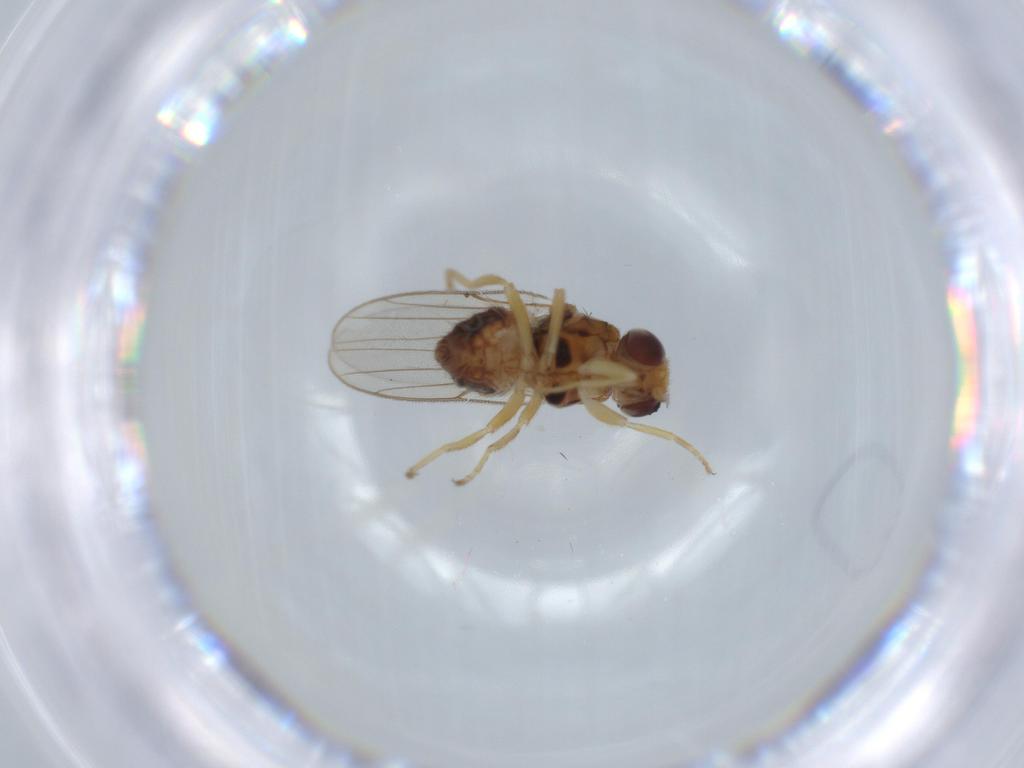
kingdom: Animalia
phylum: Arthropoda
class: Insecta
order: Diptera
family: Chloropidae
